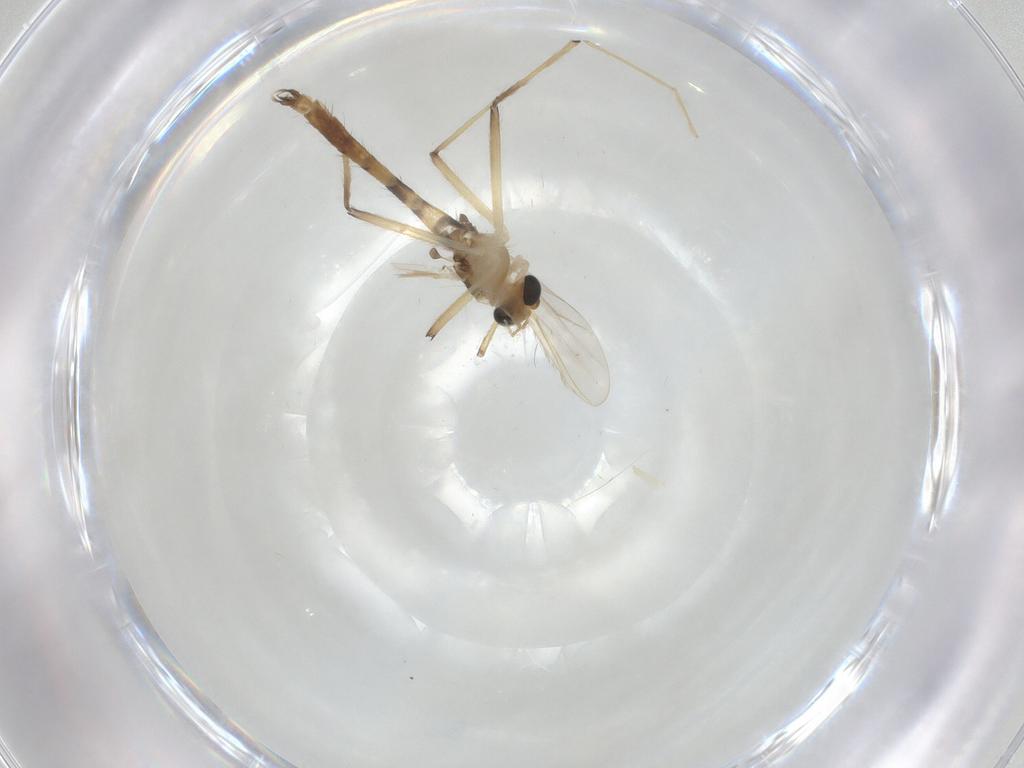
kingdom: Animalia
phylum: Arthropoda
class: Insecta
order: Diptera
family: Chironomidae
